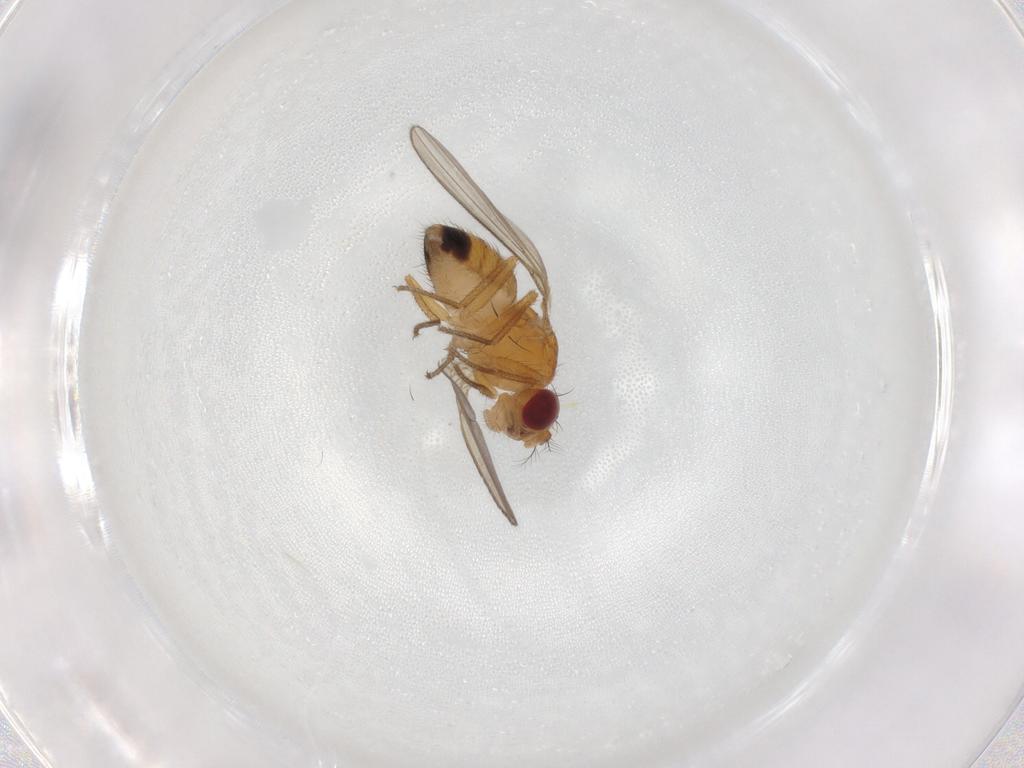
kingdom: Animalia
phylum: Arthropoda
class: Insecta
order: Diptera
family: Drosophilidae
